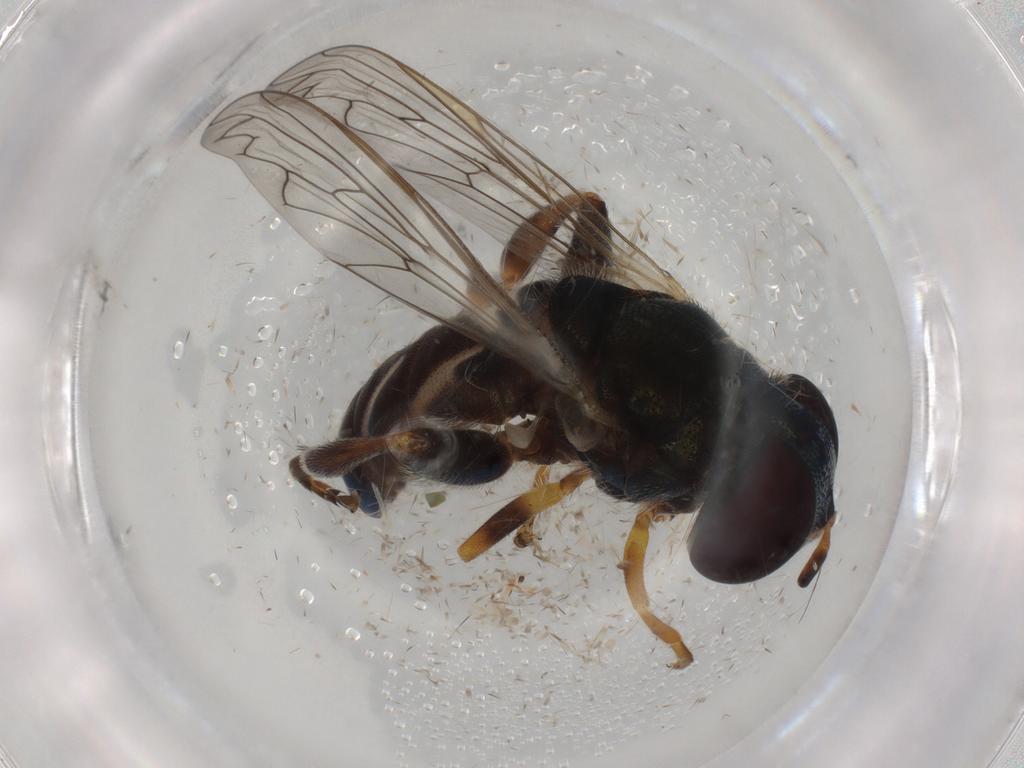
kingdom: Animalia
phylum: Arthropoda
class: Insecta
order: Diptera
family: Syrphidae
